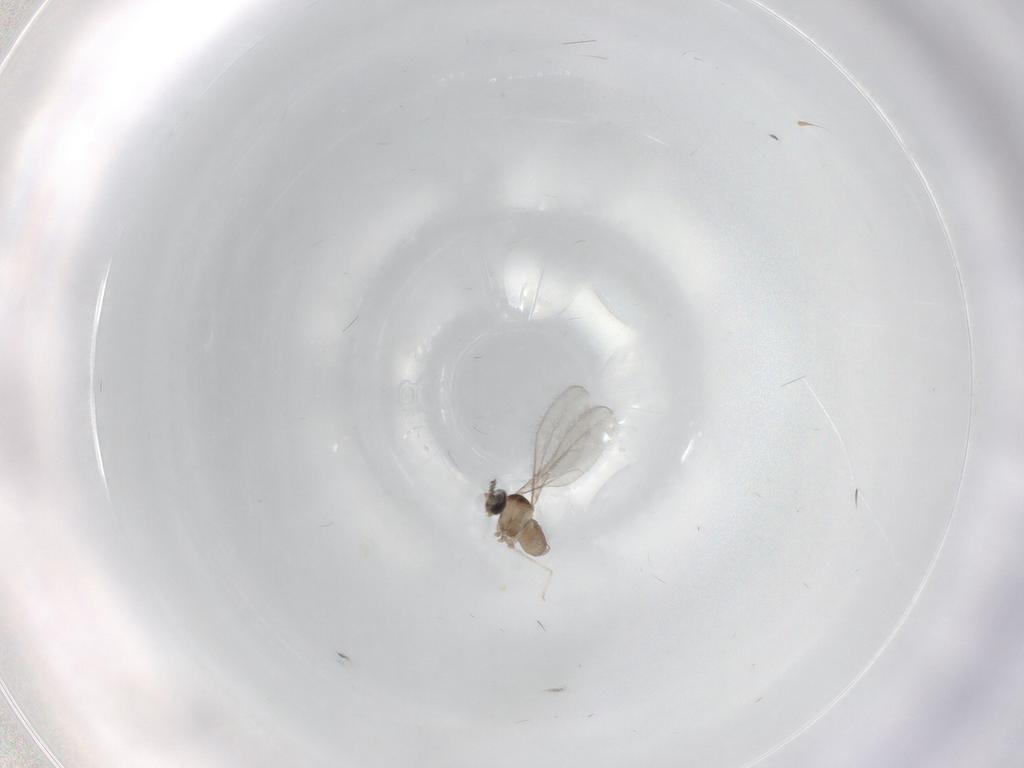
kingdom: Animalia
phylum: Arthropoda
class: Insecta
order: Diptera
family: Cecidomyiidae
